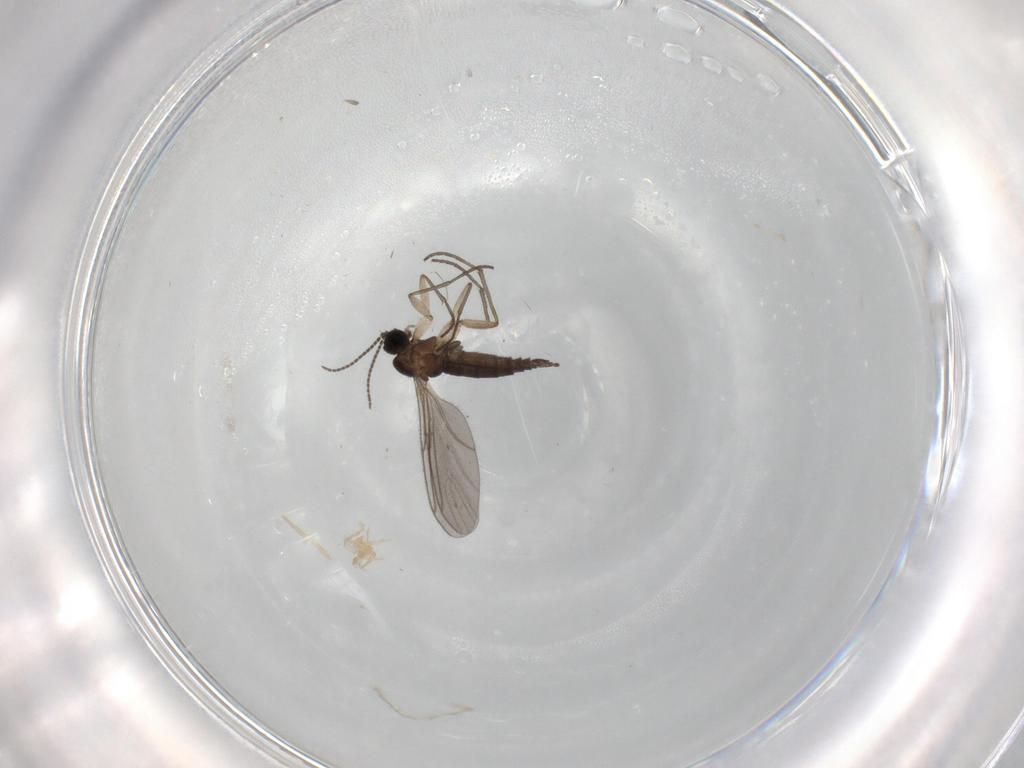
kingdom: Animalia
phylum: Arthropoda
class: Insecta
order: Diptera
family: Sciaridae
